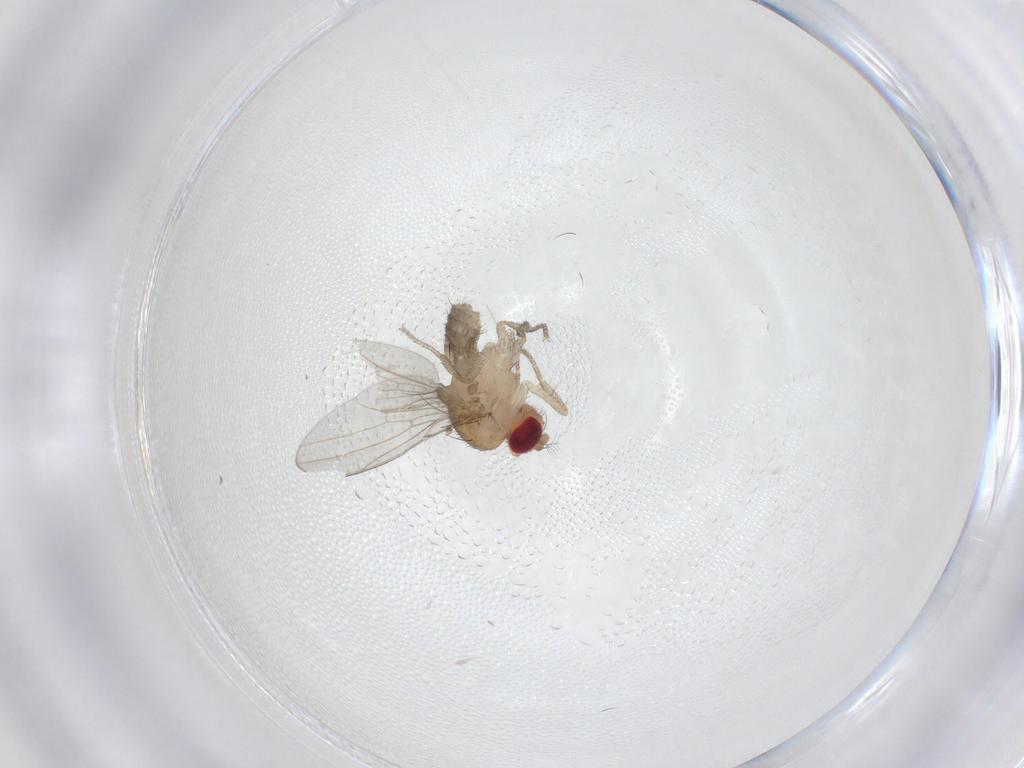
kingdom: Animalia
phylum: Arthropoda
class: Insecta
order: Diptera
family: Drosophilidae
